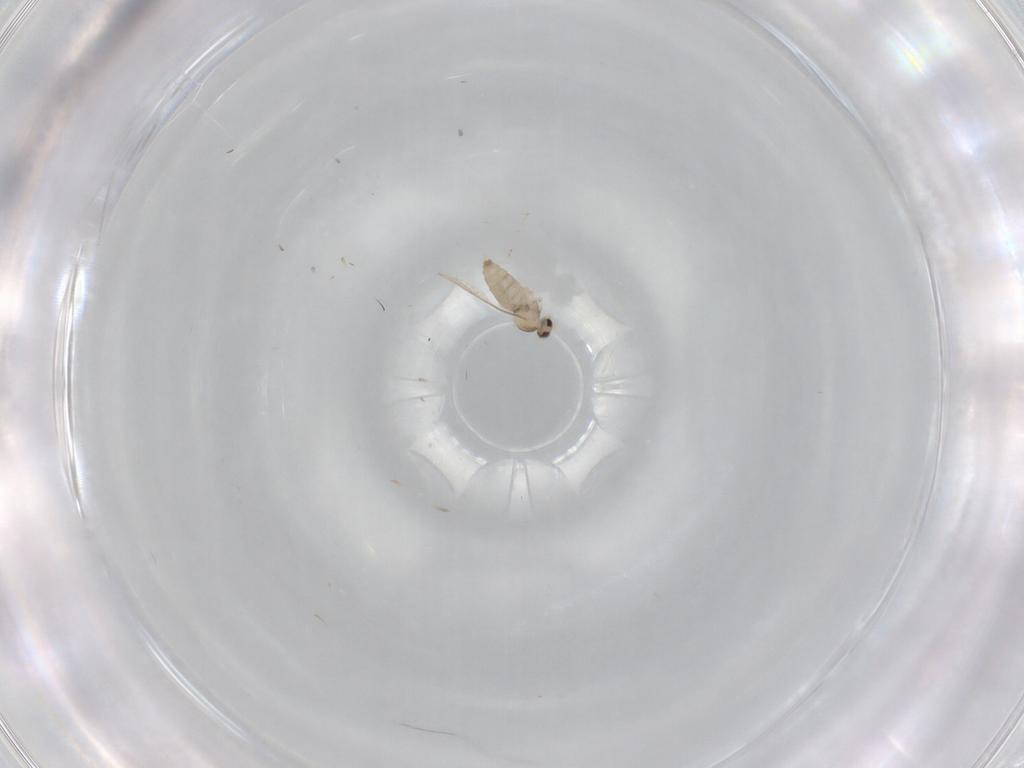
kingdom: Animalia
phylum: Arthropoda
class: Insecta
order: Diptera
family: Cecidomyiidae
